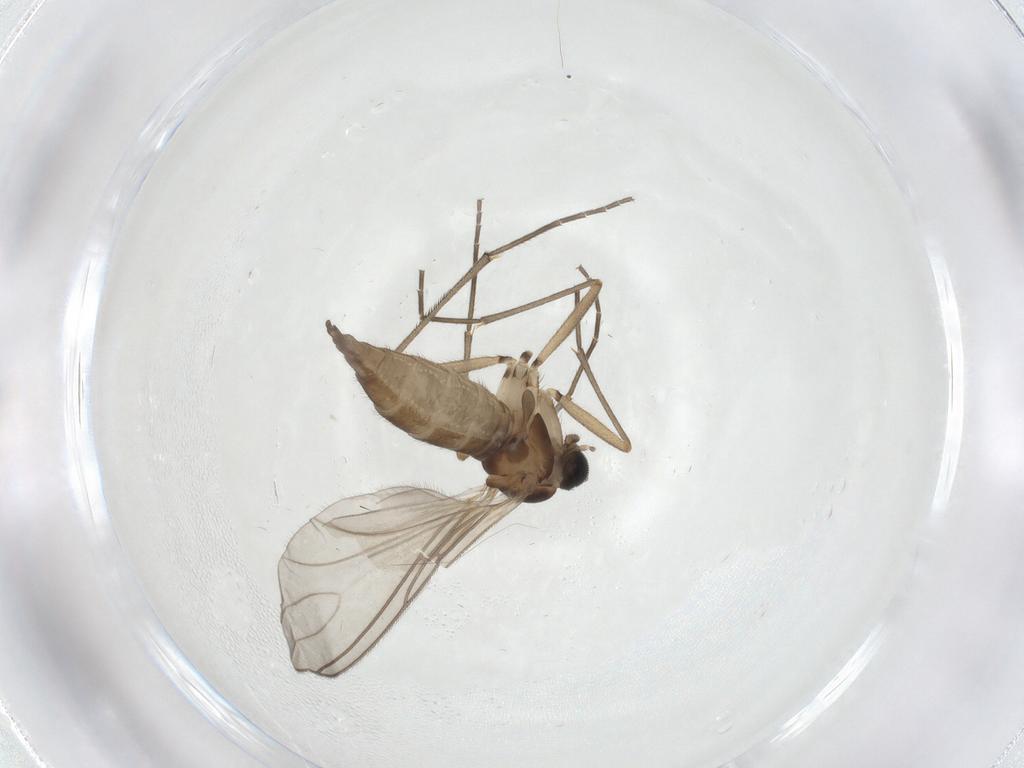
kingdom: Animalia
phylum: Arthropoda
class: Insecta
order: Diptera
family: Sciaridae
